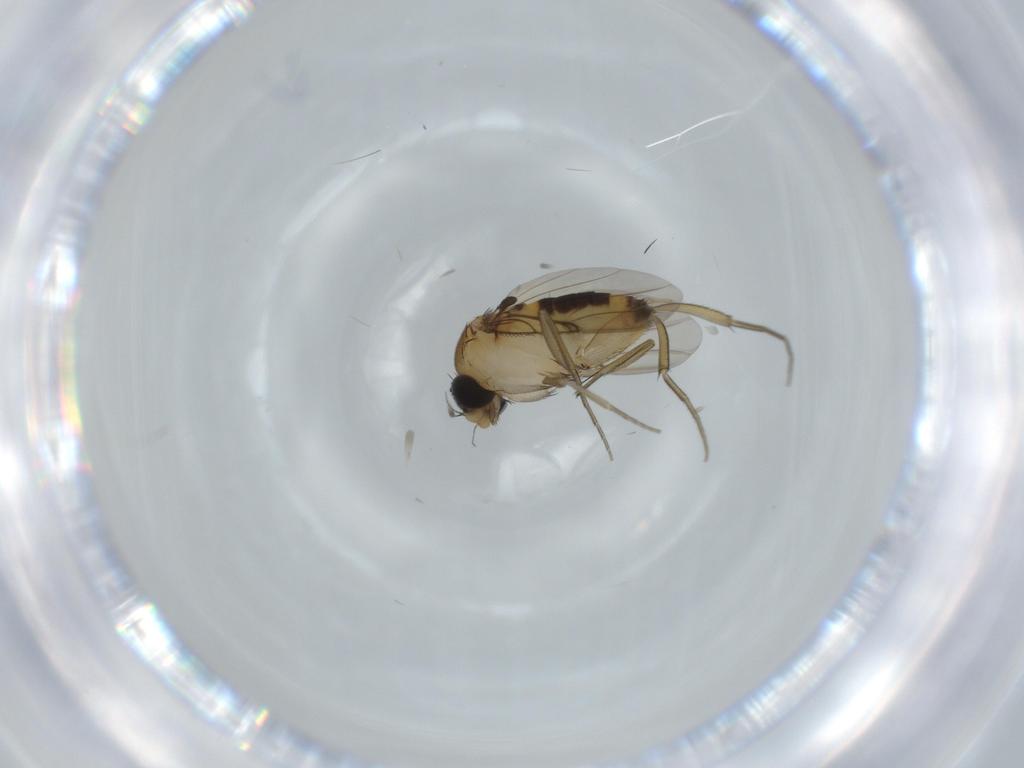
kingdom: Animalia
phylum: Arthropoda
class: Insecta
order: Diptera
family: Phoridae
